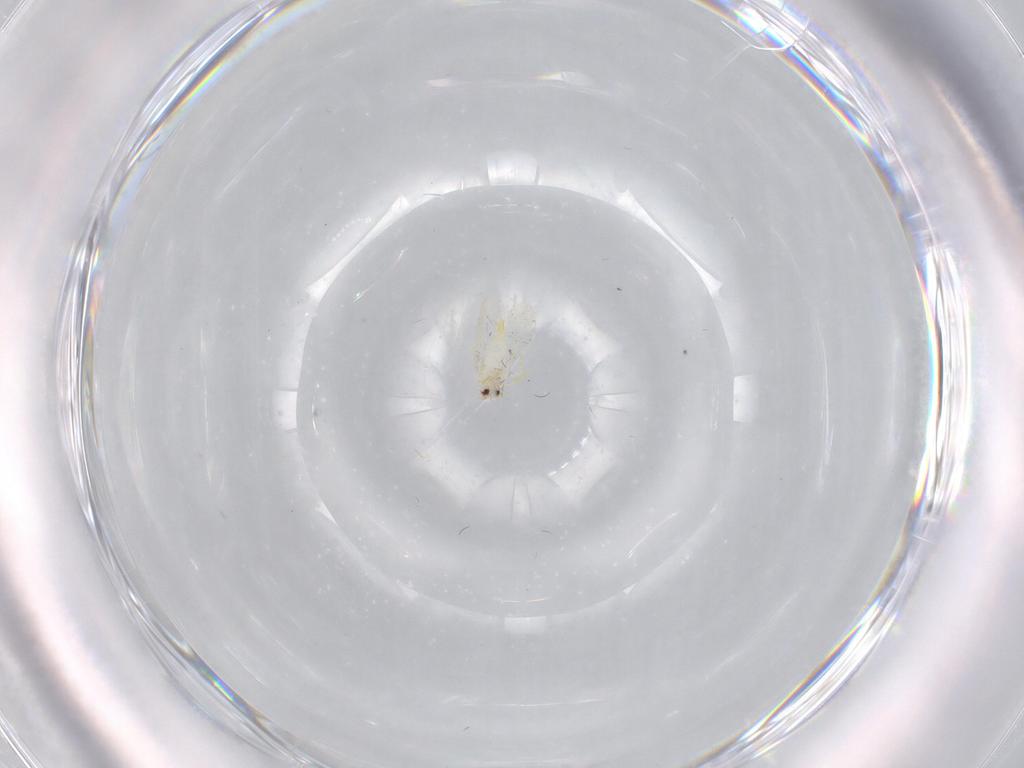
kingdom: Animalia
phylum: Arthropoda
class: Insecta
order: Hemiptera
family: Aleyrodidae
